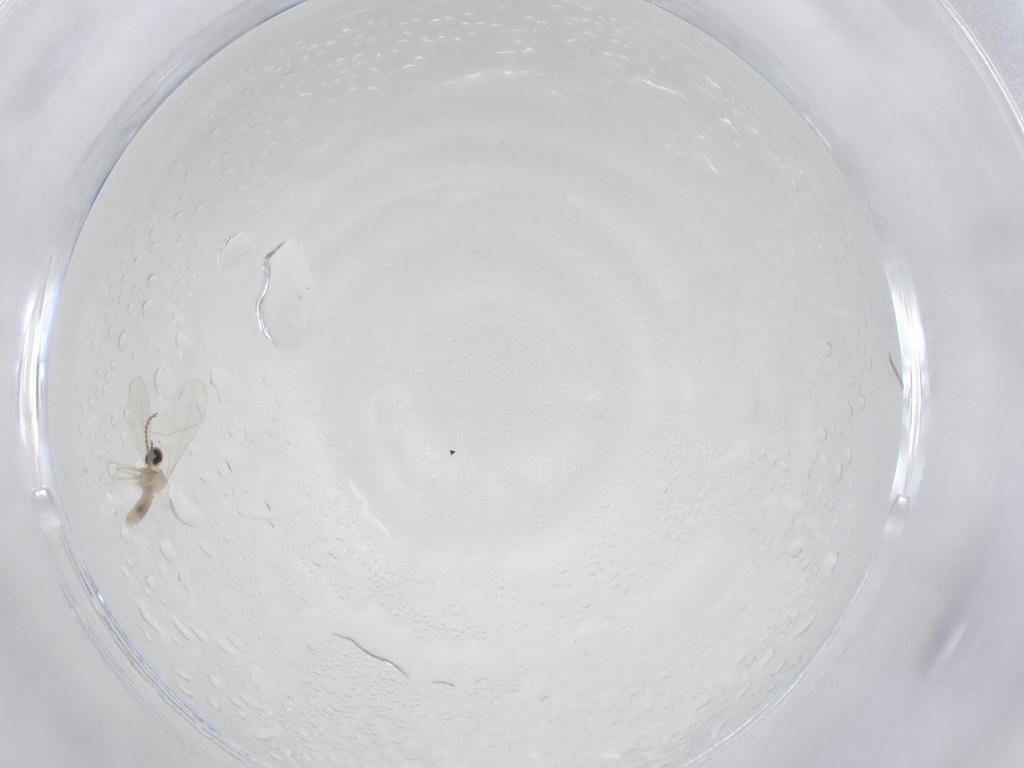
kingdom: Animalia
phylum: Arthropoda
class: Insecta
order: Diptera
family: Cecidomyiidae
